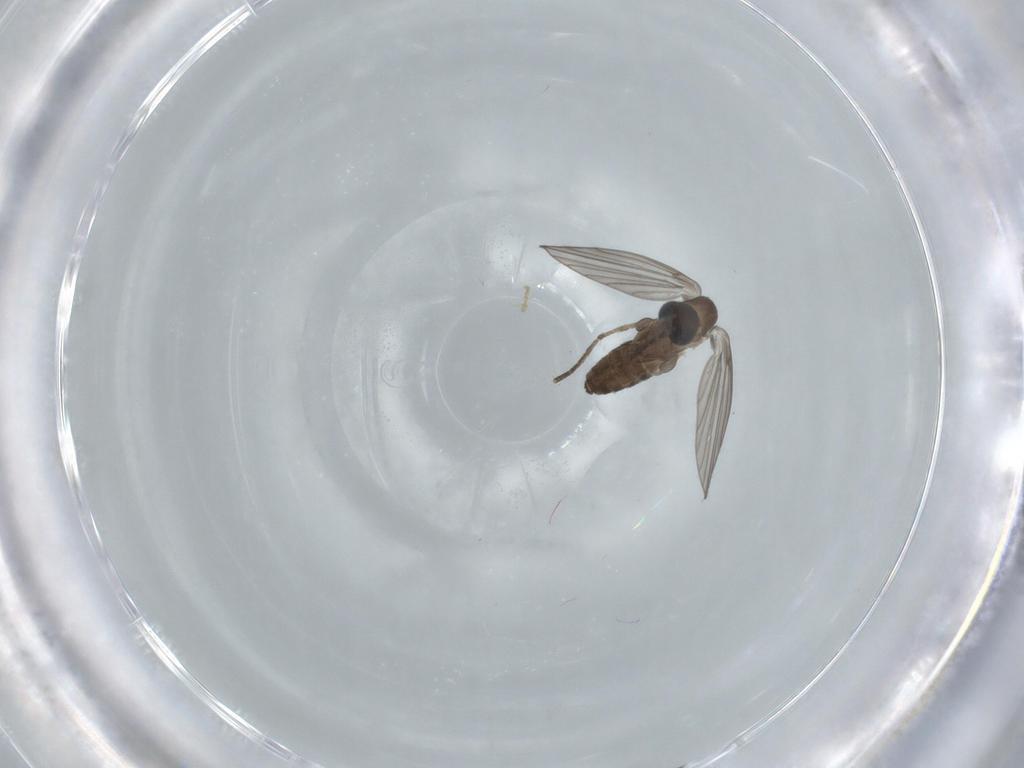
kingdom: Animalia
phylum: Arthropoda
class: Insecta
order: Diptera
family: Psychodidae
